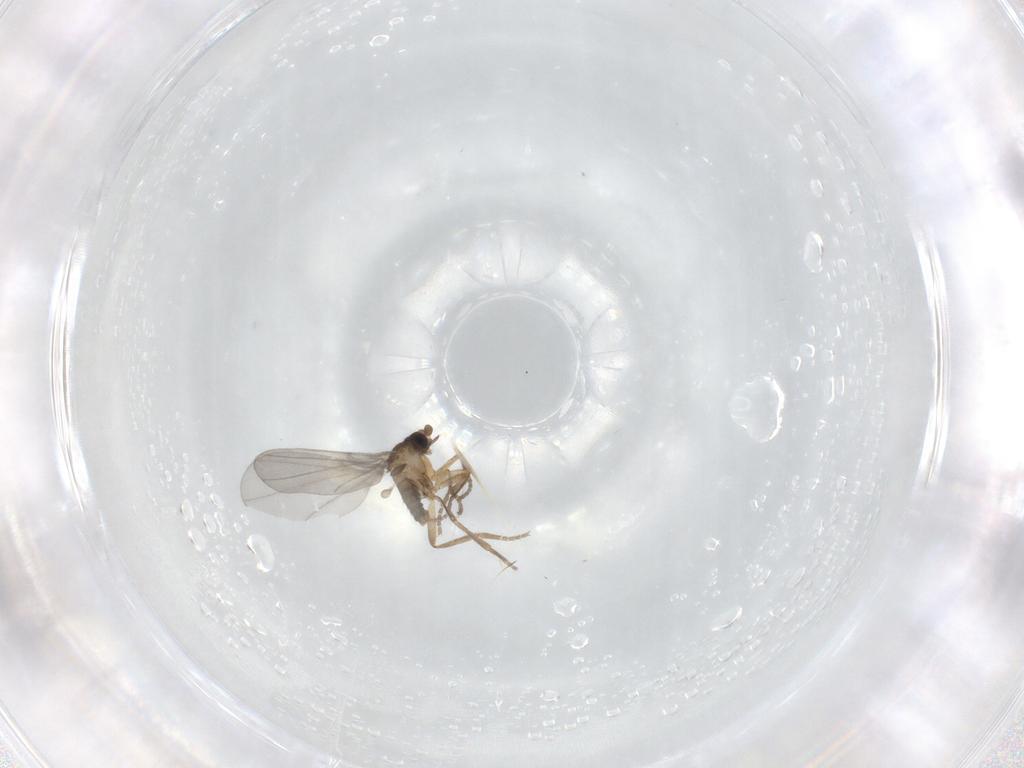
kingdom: Animalia
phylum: Arthropoda
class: Insecta
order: Diptera
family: Phoridae
